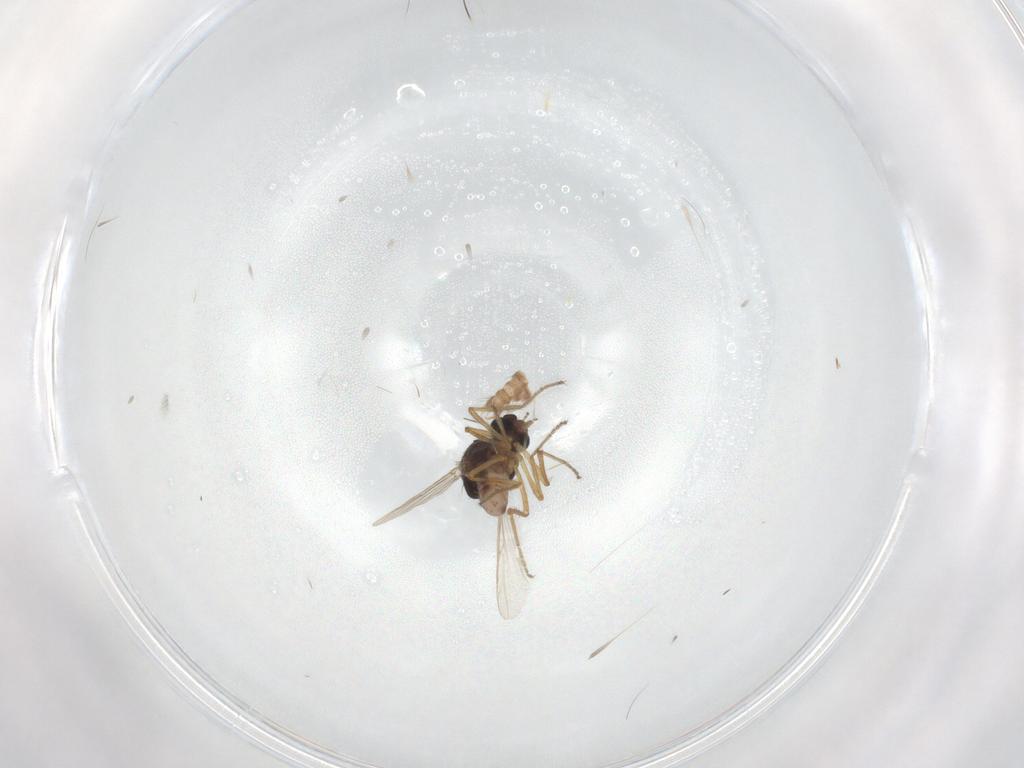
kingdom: Animalia
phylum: Arthropoda
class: Insecta
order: Diptera
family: Ceratopogonidae
